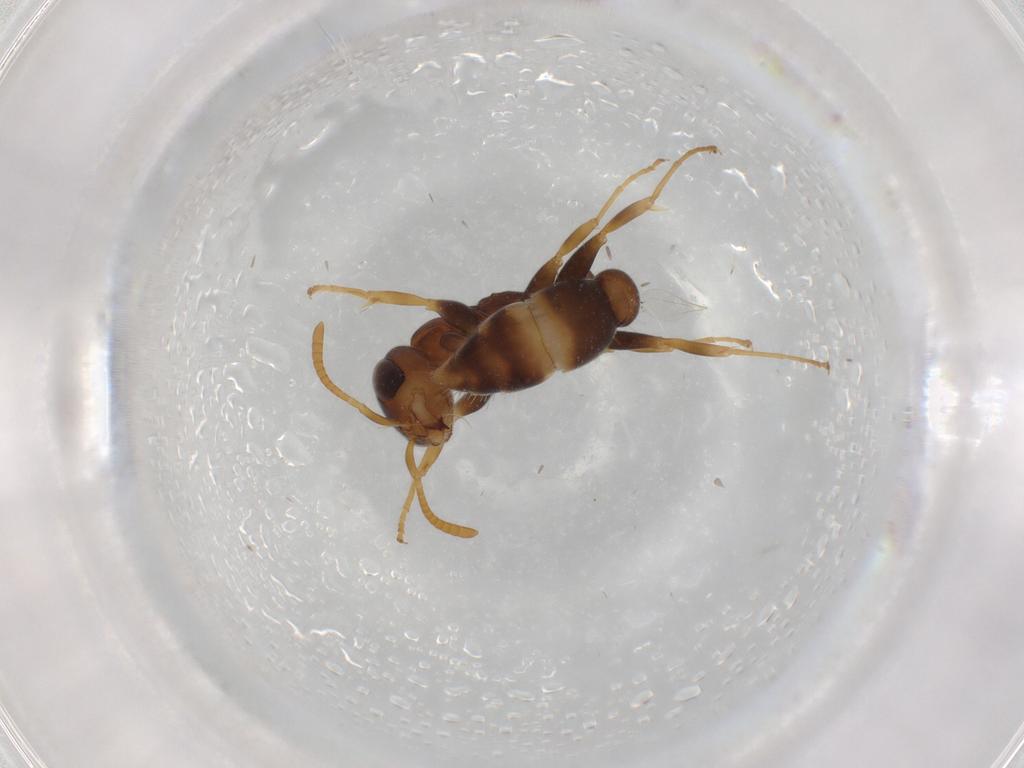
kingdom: Animalia
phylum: Arthropoda
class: Insecta
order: Hymenoptera
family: Formicidae
